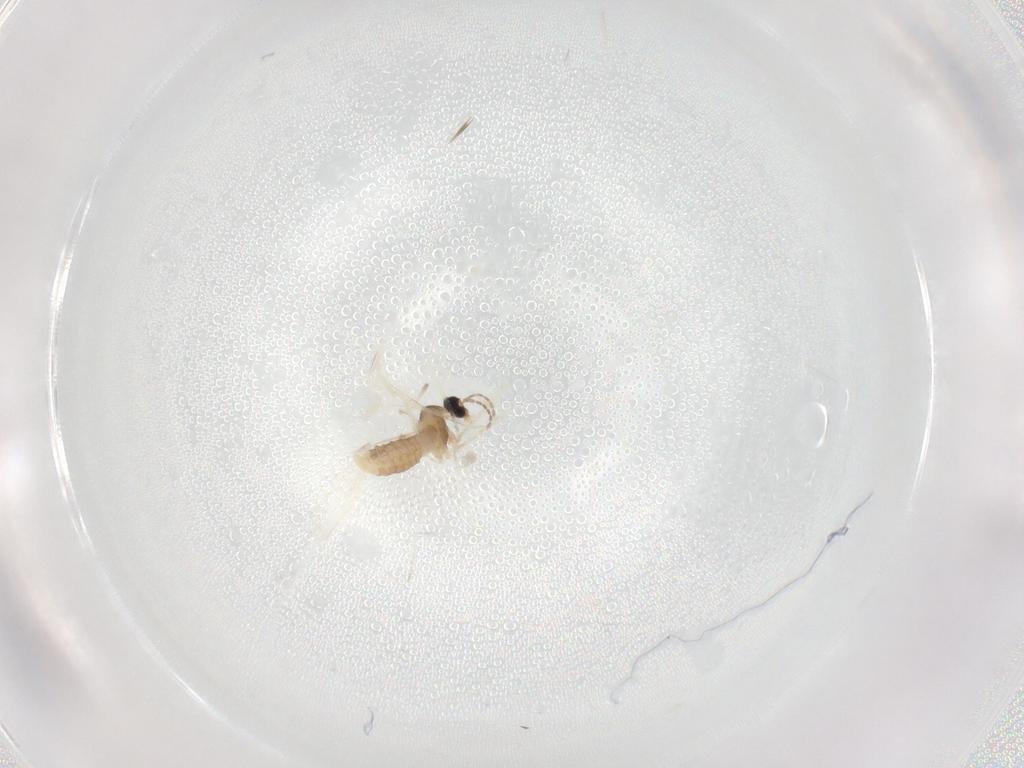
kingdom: Animalia
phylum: Arthropoda
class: Insecta
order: Diptera
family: Cecidomyiidae
